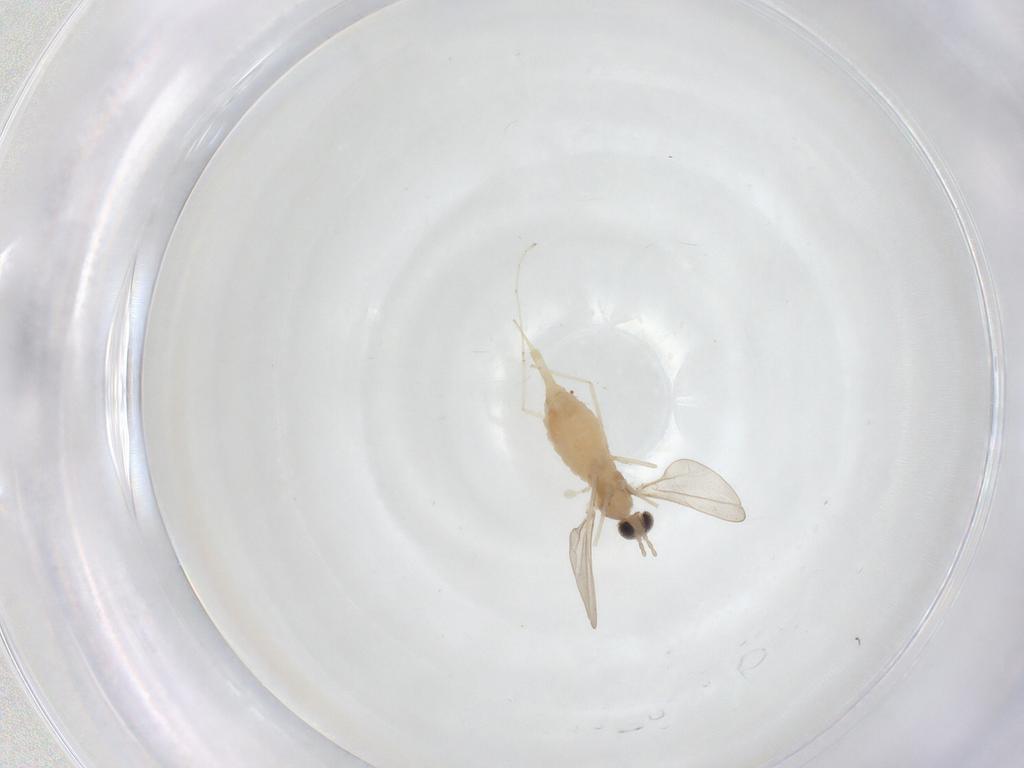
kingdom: Animalia
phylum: Arthropoda
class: Insecta
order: Diptera
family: Cecidomyiidae
